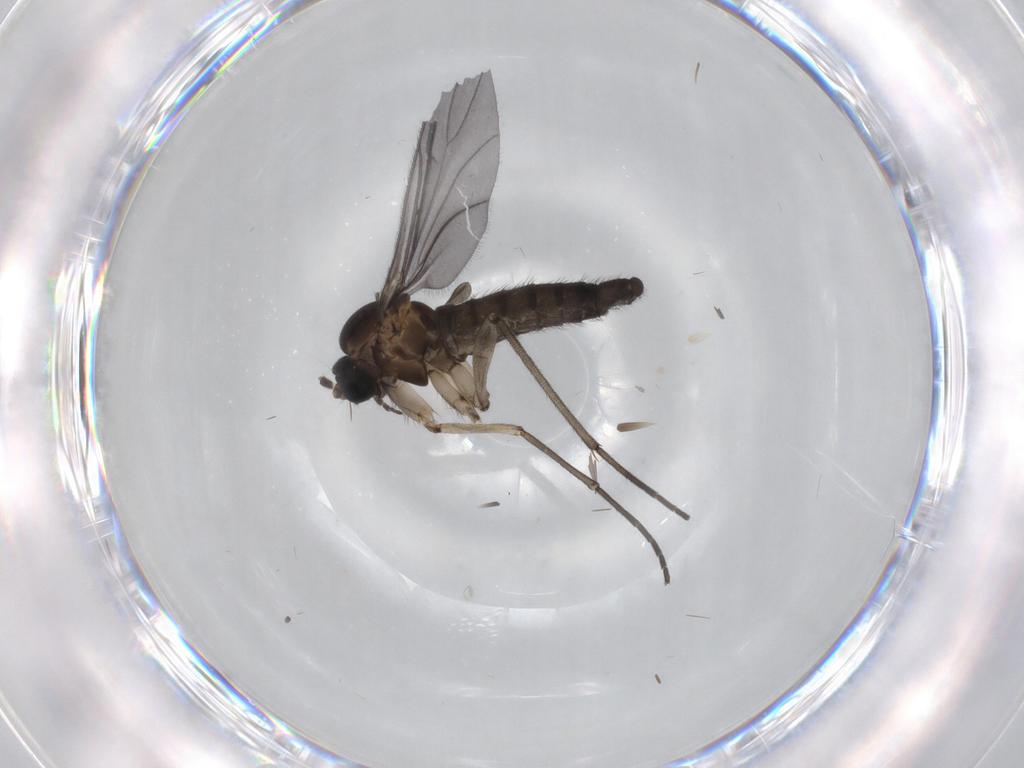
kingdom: Animalia
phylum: Arthropoda
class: Insecta
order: Diptera
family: Sciaridae
